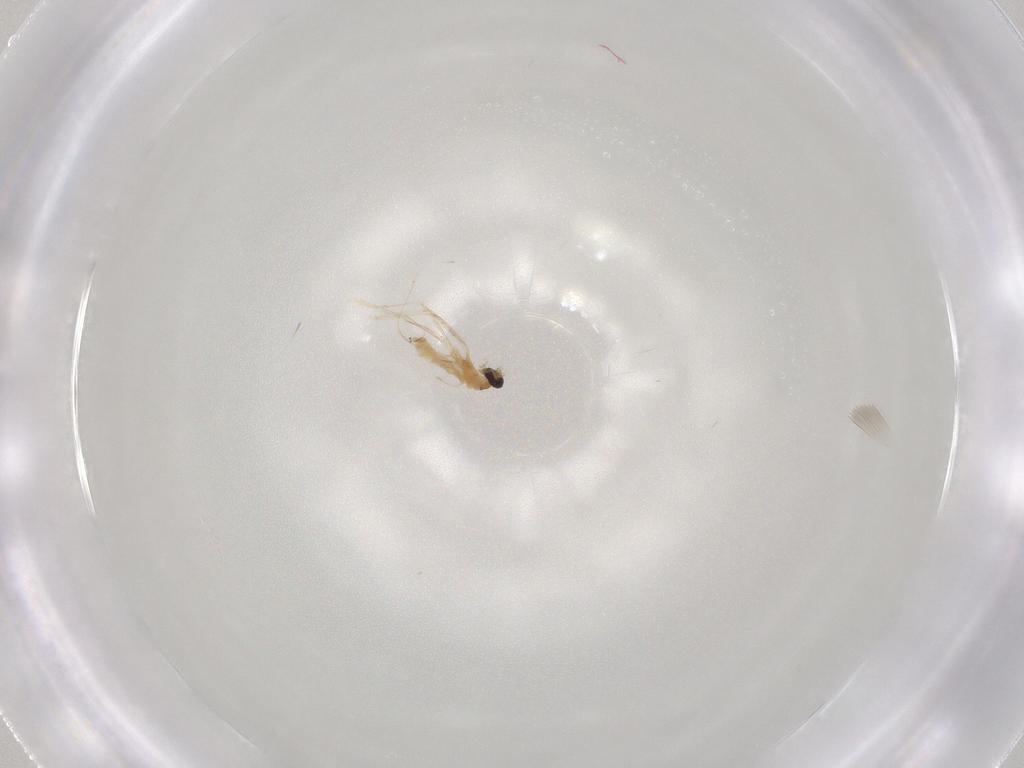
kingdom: Animalia
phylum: Arthropoda
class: Insecta
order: Diptera
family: Cecidomyiidae
